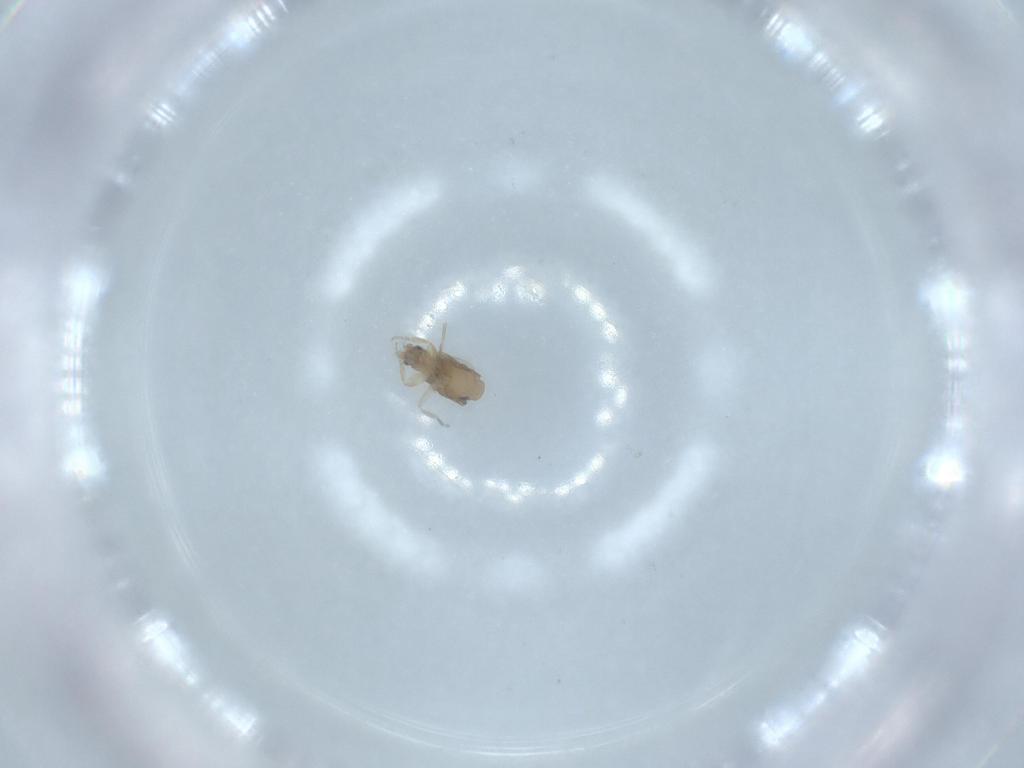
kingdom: Animalia
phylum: Arthropoda
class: Insecta
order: Diptera
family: Phoridae
